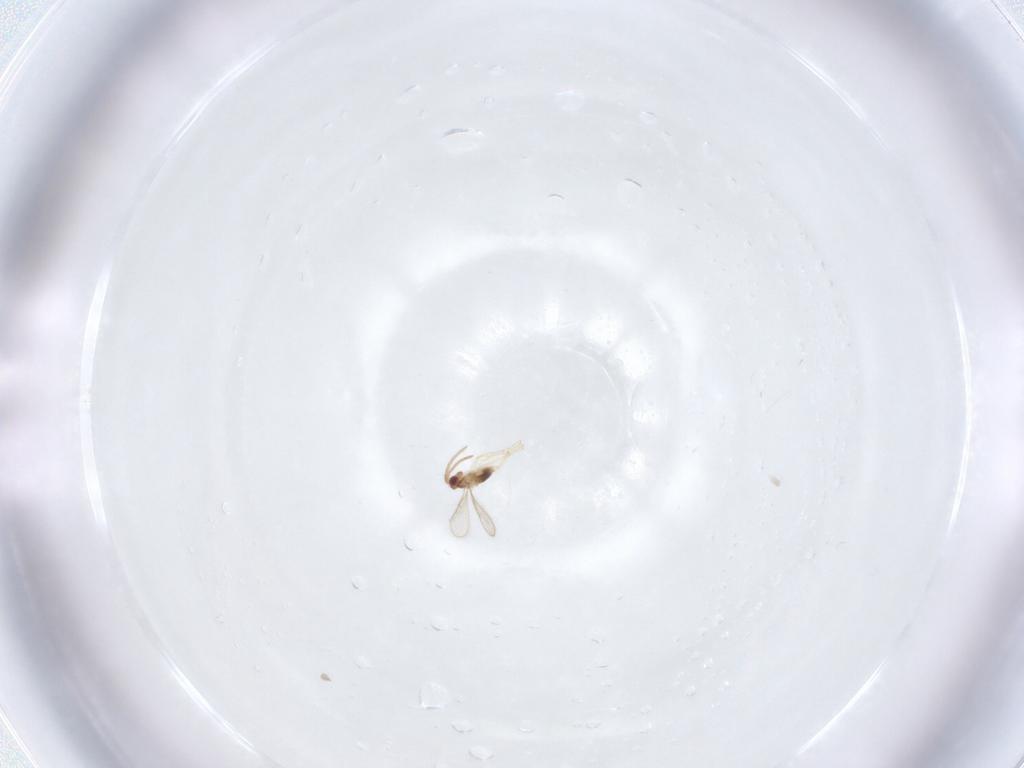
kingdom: Animalia
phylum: Arthropoda
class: Insecta
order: Hymenoptera
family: Aphelinidae
